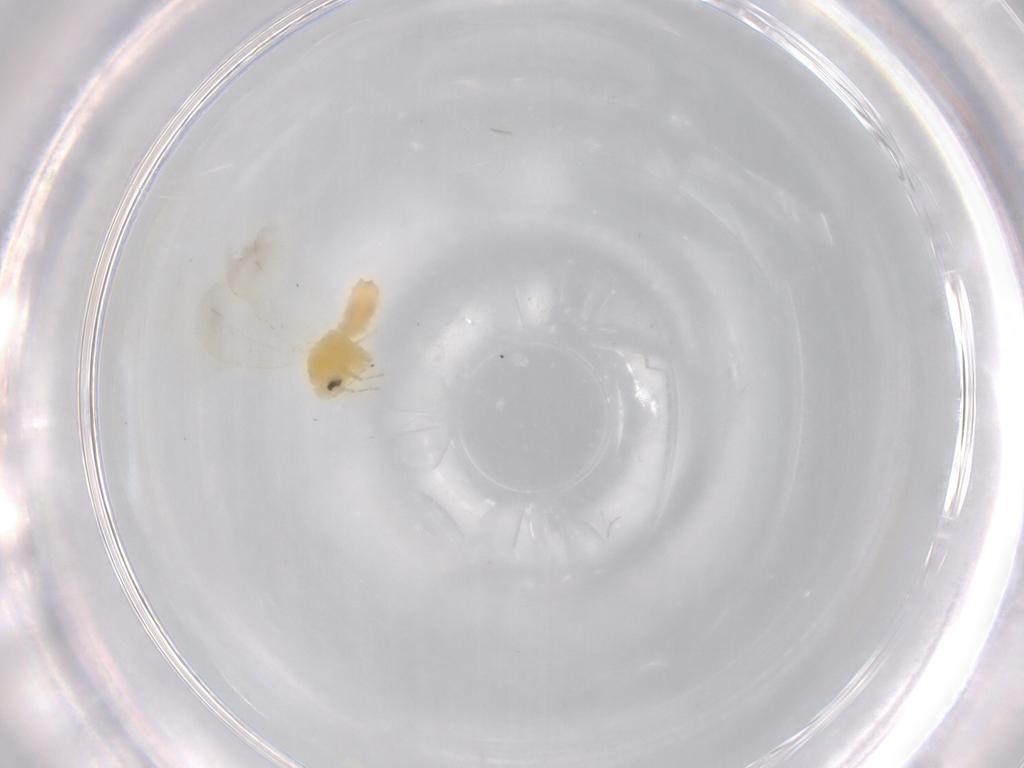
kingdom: Animalia
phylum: Arthropoda
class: Insecta
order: Hemiptera
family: Aleyrodidae
